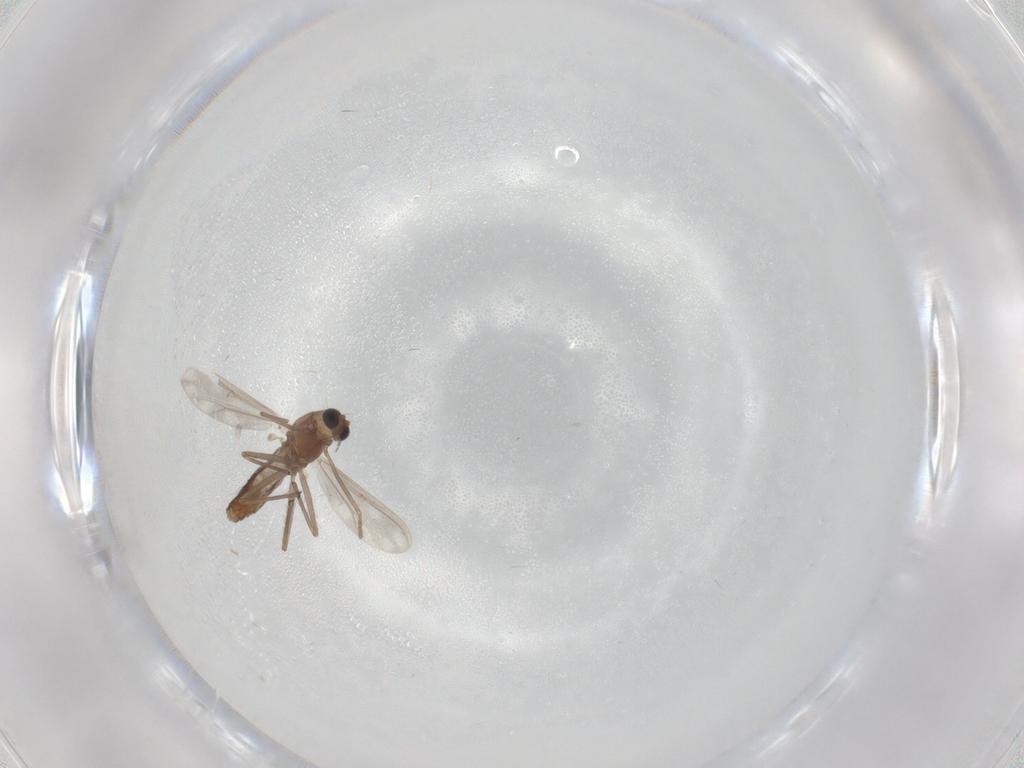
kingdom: Animalia
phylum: Arthropoda
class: Insecta
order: Diptera
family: Chironomidae
